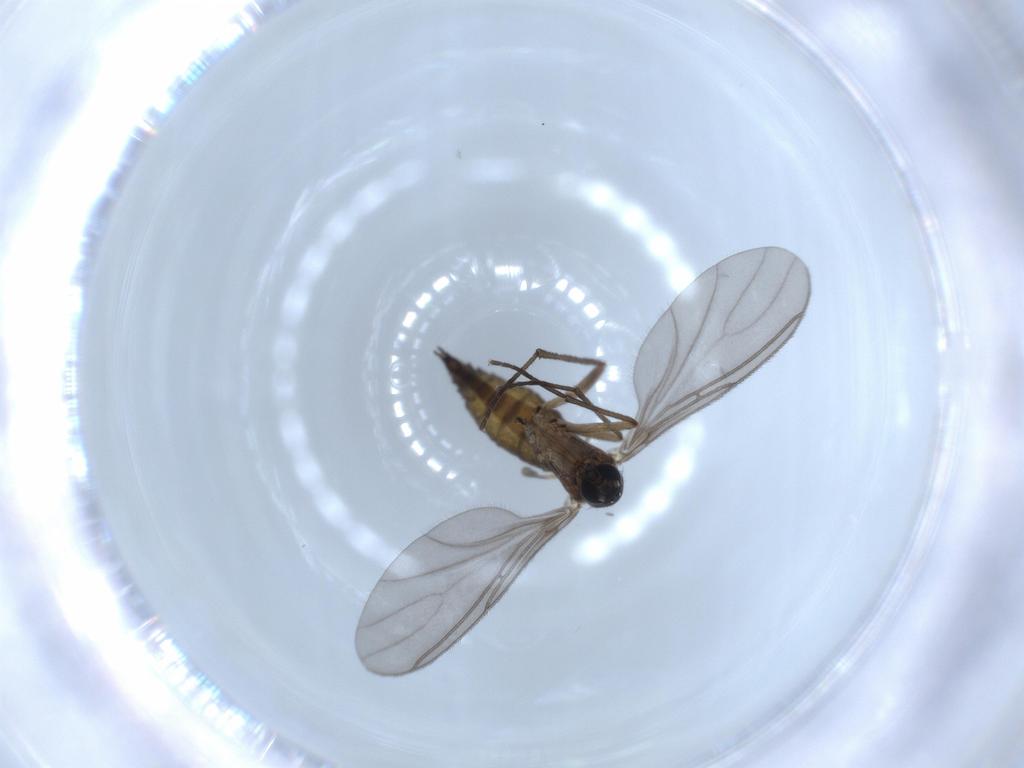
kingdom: Animalia
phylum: Arthropoda
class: Insecta
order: Diptera
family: Sciaridae
